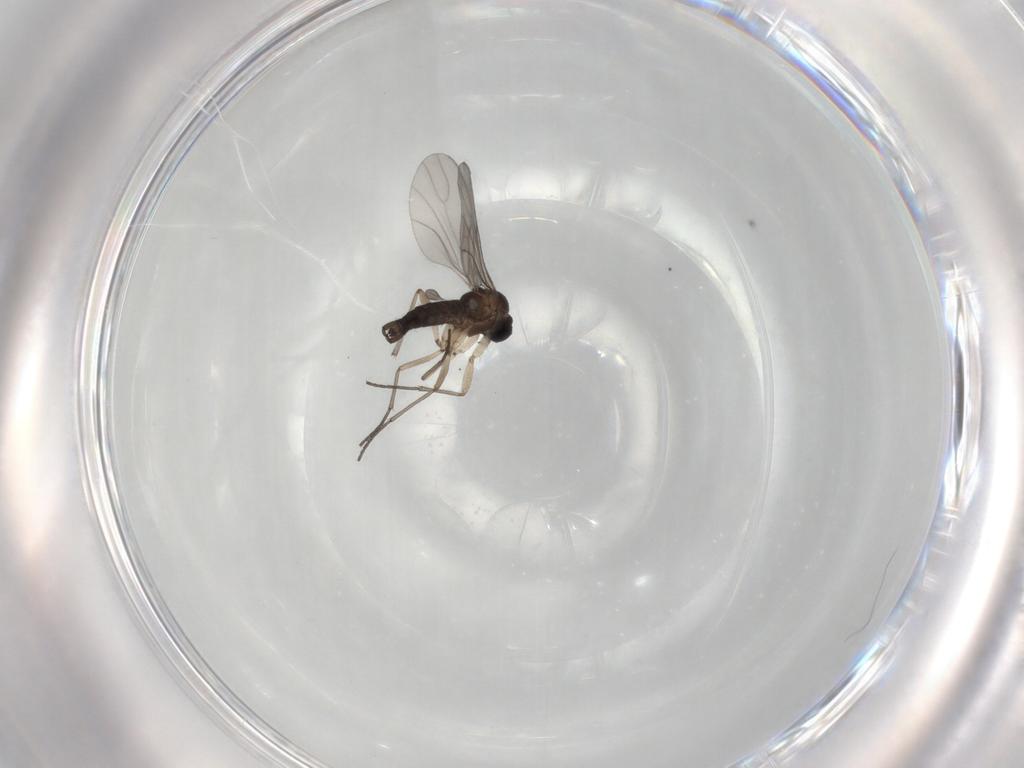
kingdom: Animalia
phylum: Arthropoda
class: Insecta
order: Diptera
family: Sciaridae
